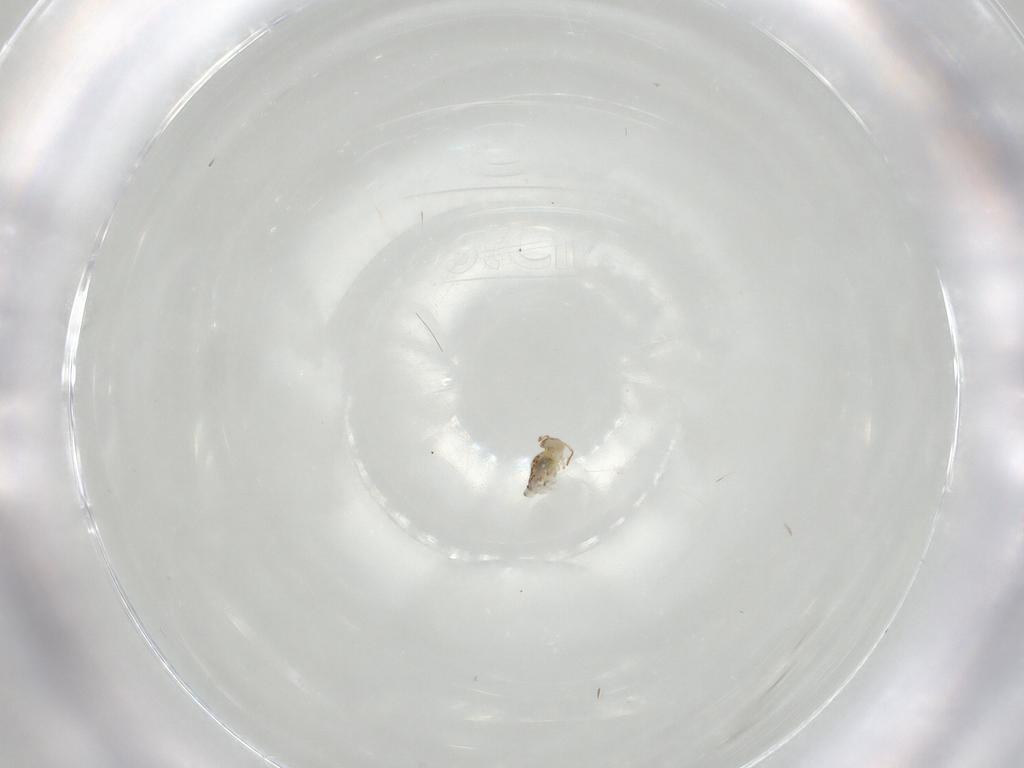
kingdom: Animalia
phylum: Arthropoda
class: Collembola
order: Symphypleona
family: Bourletiellidae
